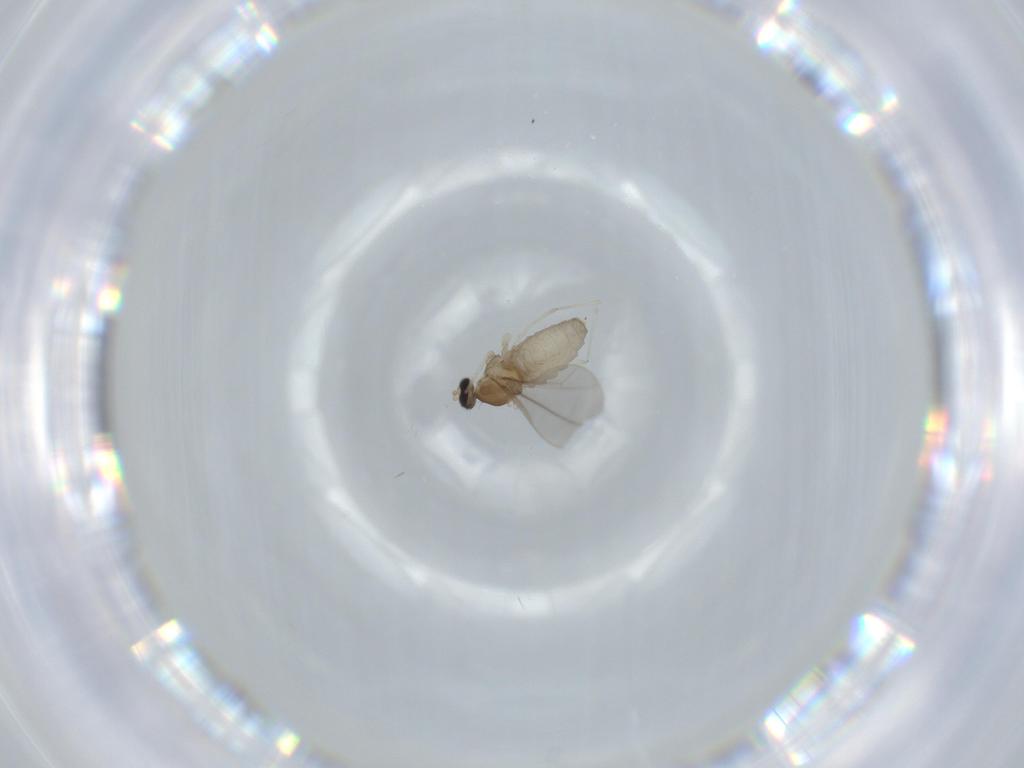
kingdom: Animalia
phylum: Arthropoda
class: Insecta
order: Diptera
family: Cecidomyiidae
